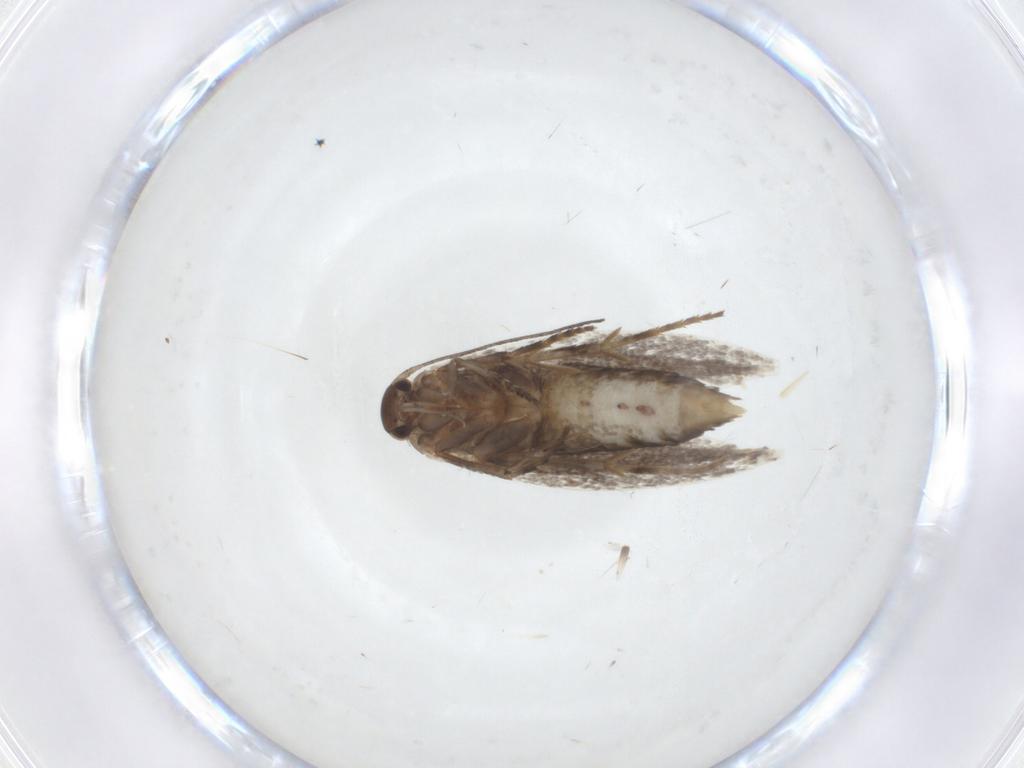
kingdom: Animalia
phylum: Arthropoda
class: Insecta
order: Lepidoptera
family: Elachistidae
